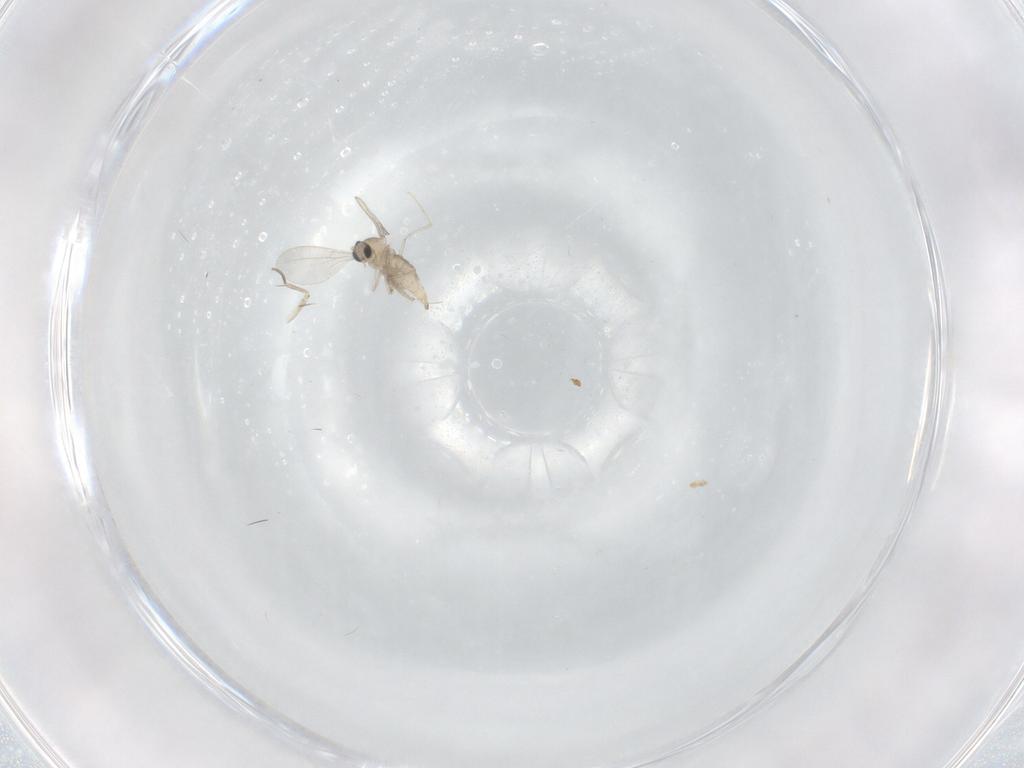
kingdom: Animalia
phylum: Arthropoda
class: Insecta
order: Diptera
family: Cecidomyiidae
